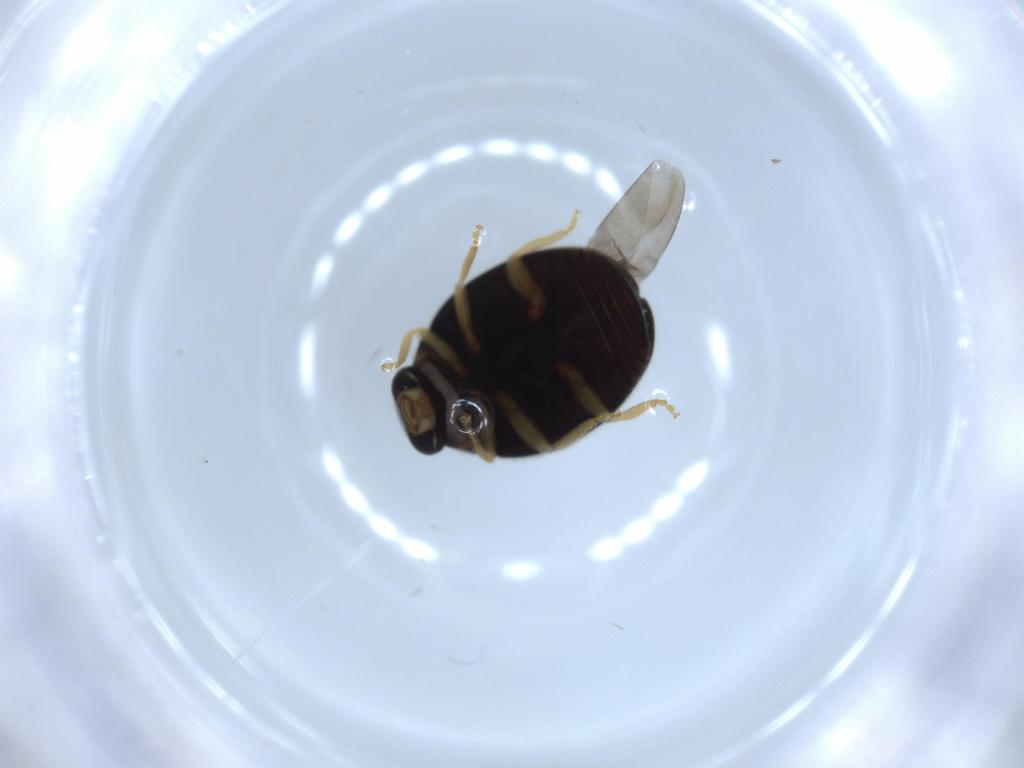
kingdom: Animalia
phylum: Arthropoda
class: Insecta
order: Coleoptera
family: Coccinellidae
